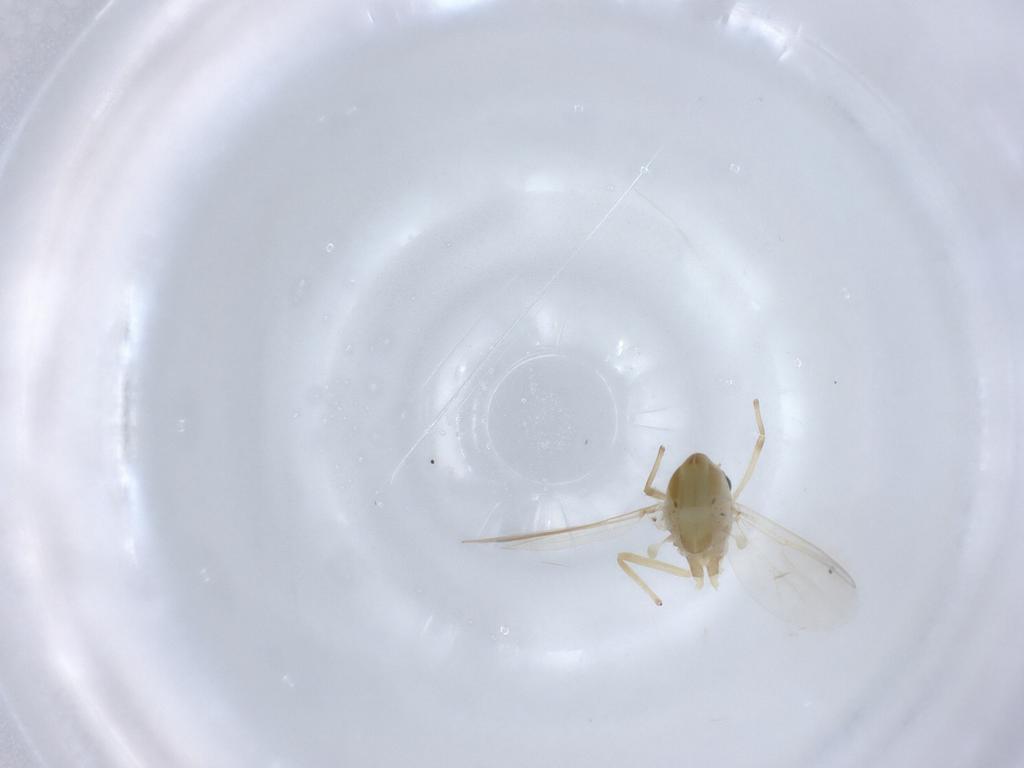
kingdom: Animalia
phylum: Arthropoda
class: Insecta
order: Diptera
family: Chironomidae
